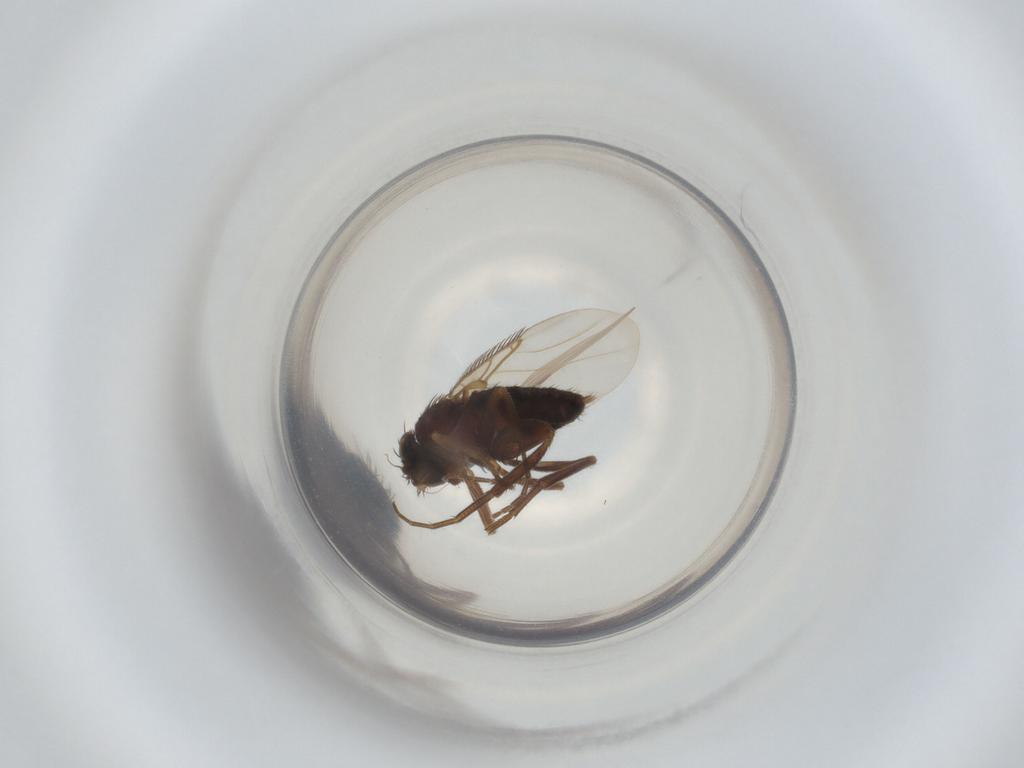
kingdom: Animalia
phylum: Arthropoda
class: Insecta
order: Diptera
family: Phoridae
